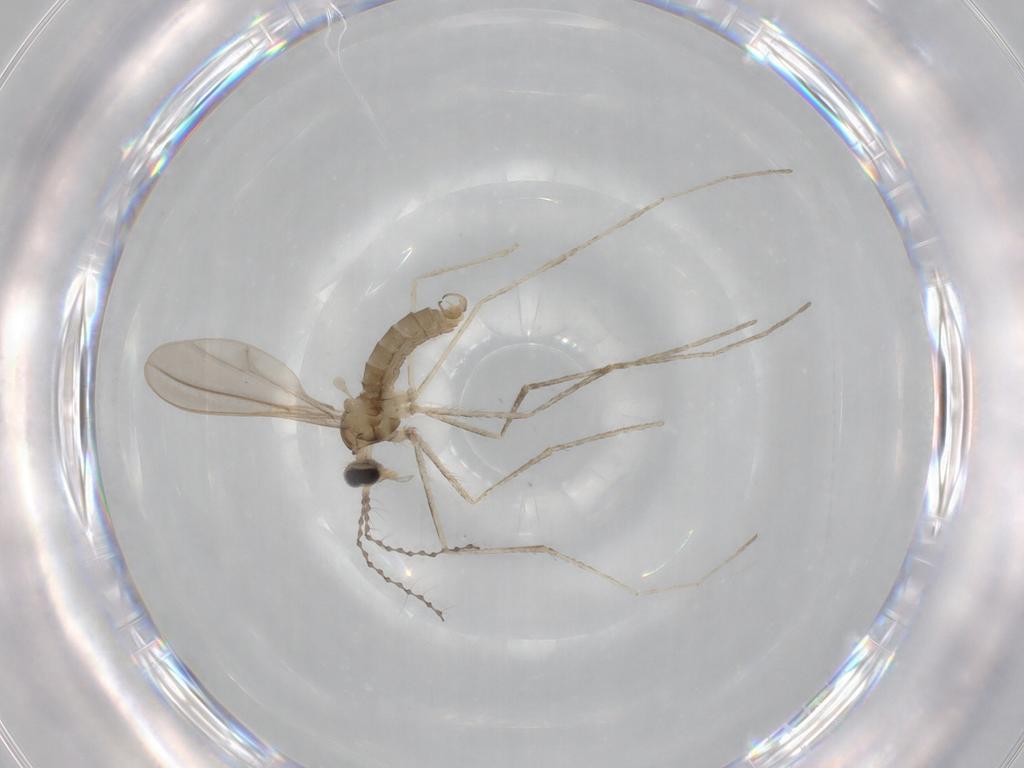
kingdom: Animalia
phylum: Arthropoda
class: Insecta
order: Diptera
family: Cecidomyiidae
